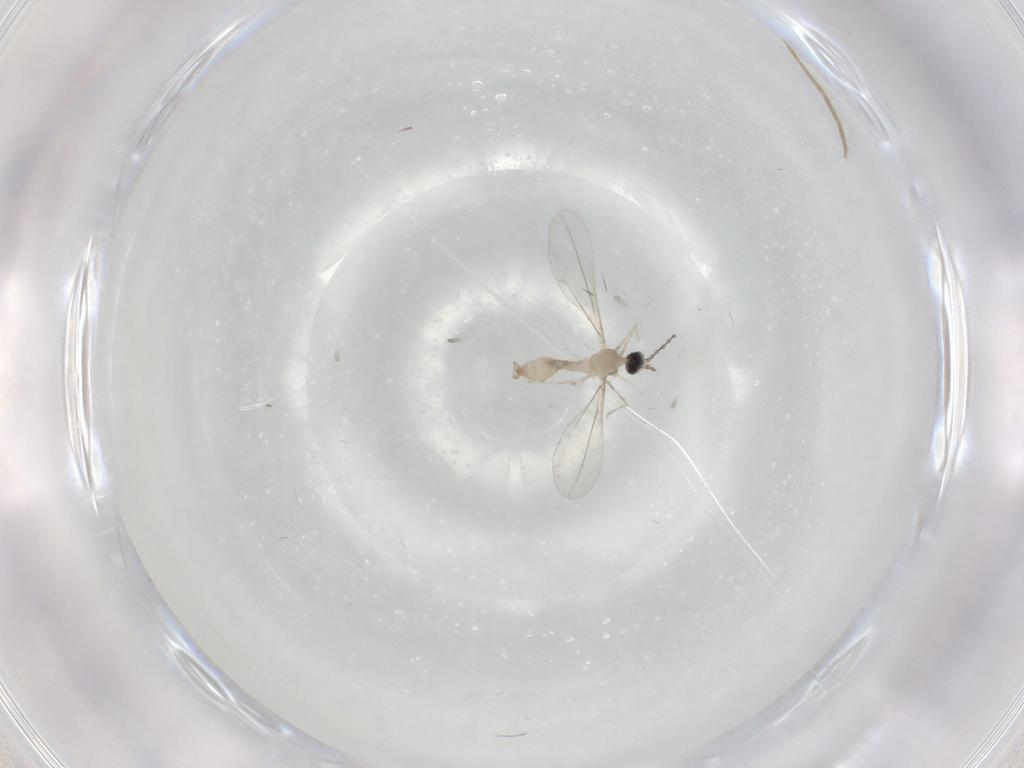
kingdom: Animalia
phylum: Arthropoda
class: Insecta
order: Diptera
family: Cecidomyiidae
